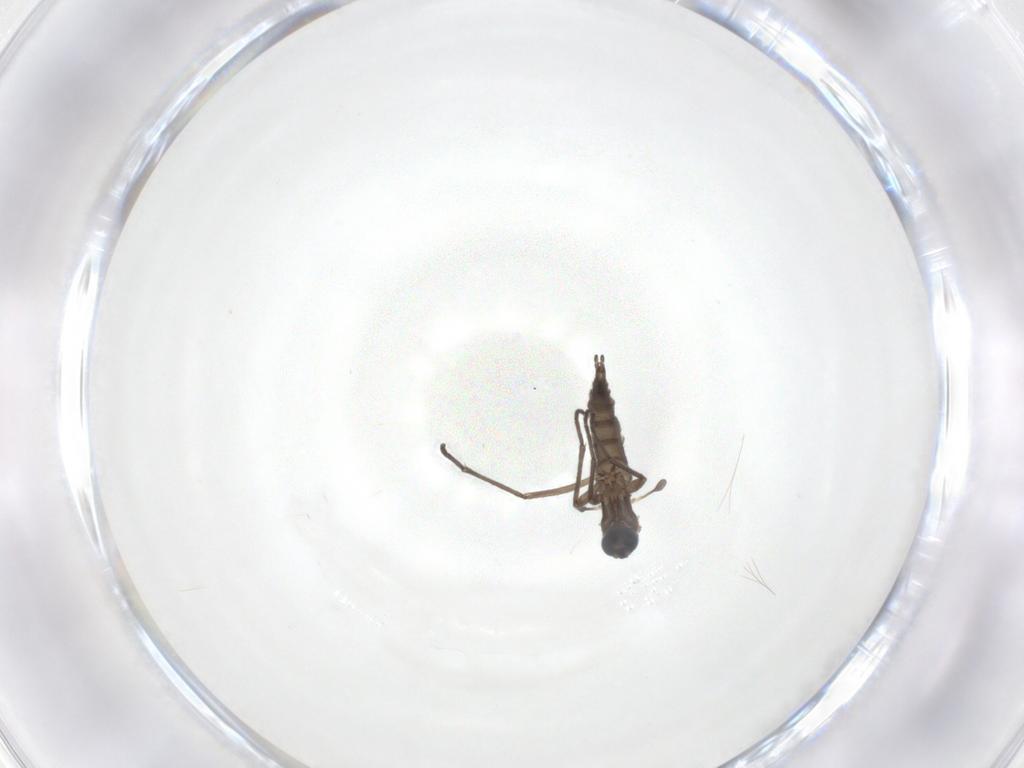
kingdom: Animalia
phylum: Arthropoda
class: Insecta
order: Diptera
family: Sciaridae
